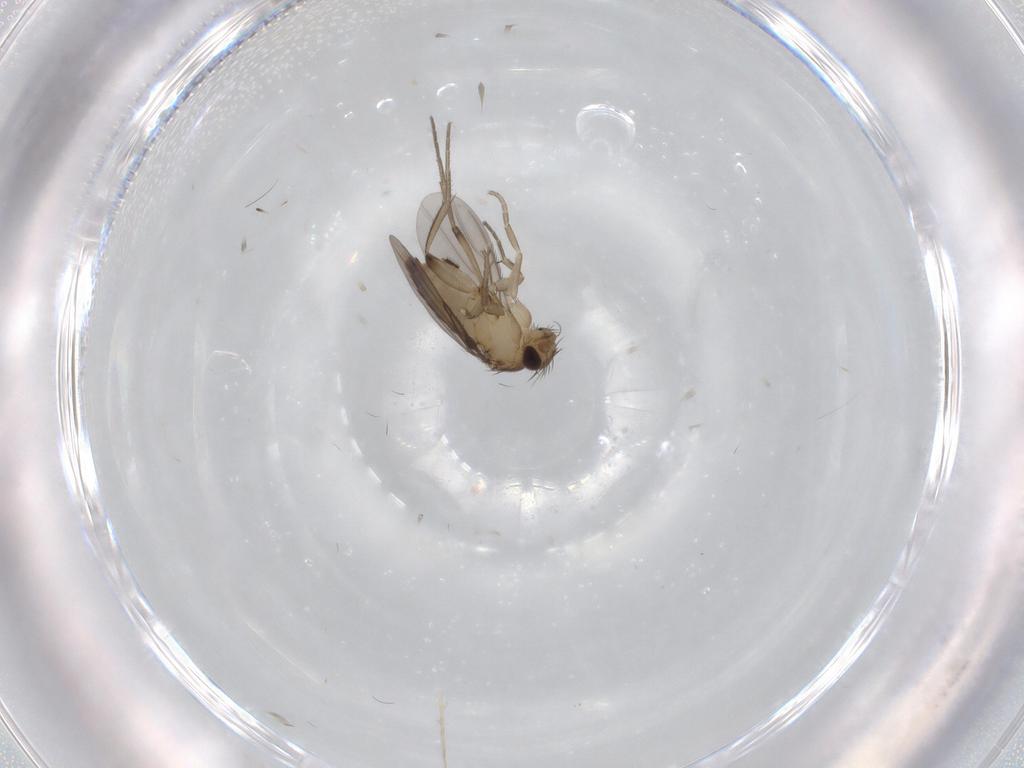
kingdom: Animalia
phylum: Arthropoda
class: Insecta
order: Diptera
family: Phoridae
